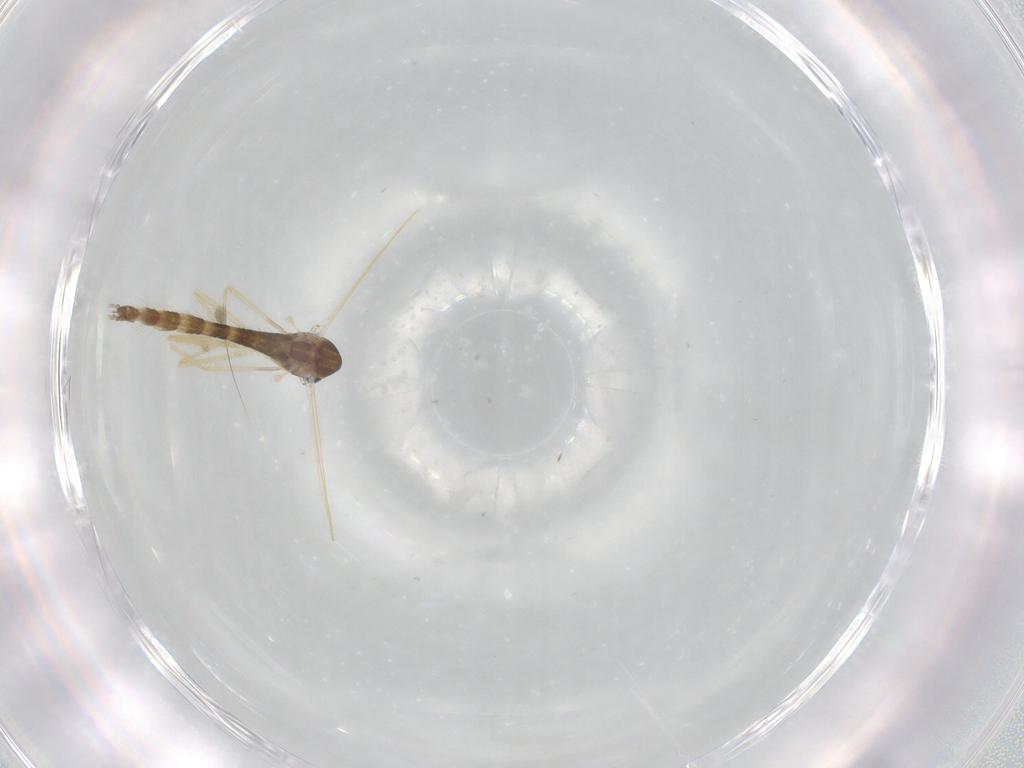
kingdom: Animalia
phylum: Arthropoda
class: Insecta
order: Diptera
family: Chironomidae
